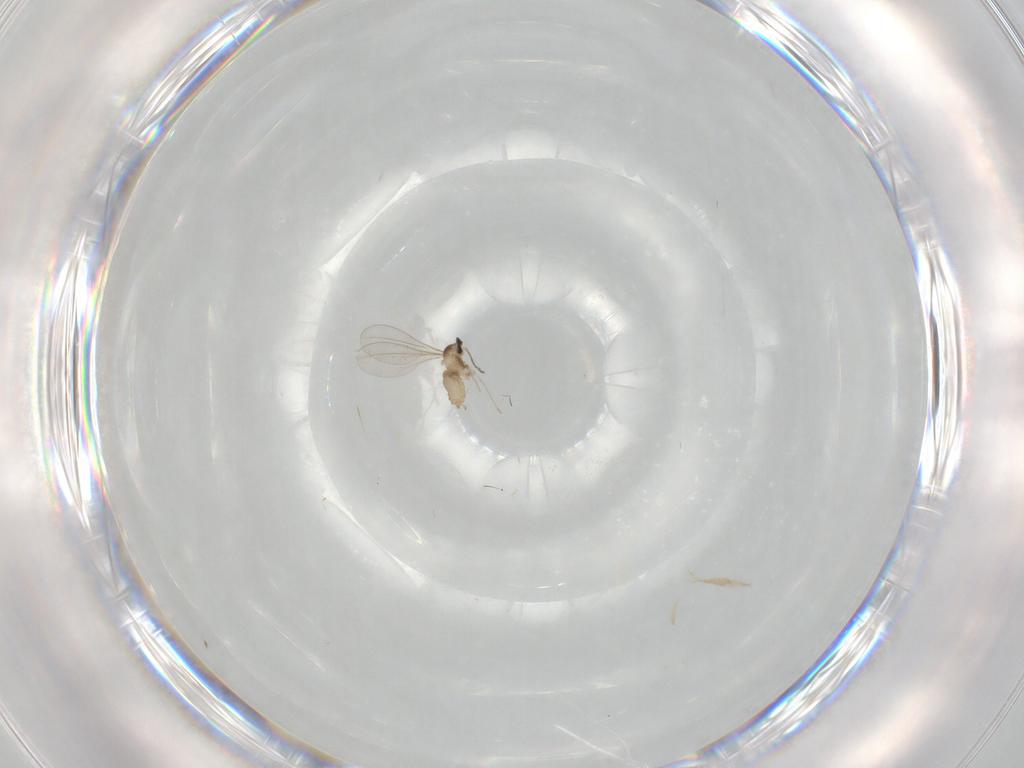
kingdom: Animalia
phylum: Arthropoda
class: Insecta
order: Diptera
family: Cecidomyiidae
